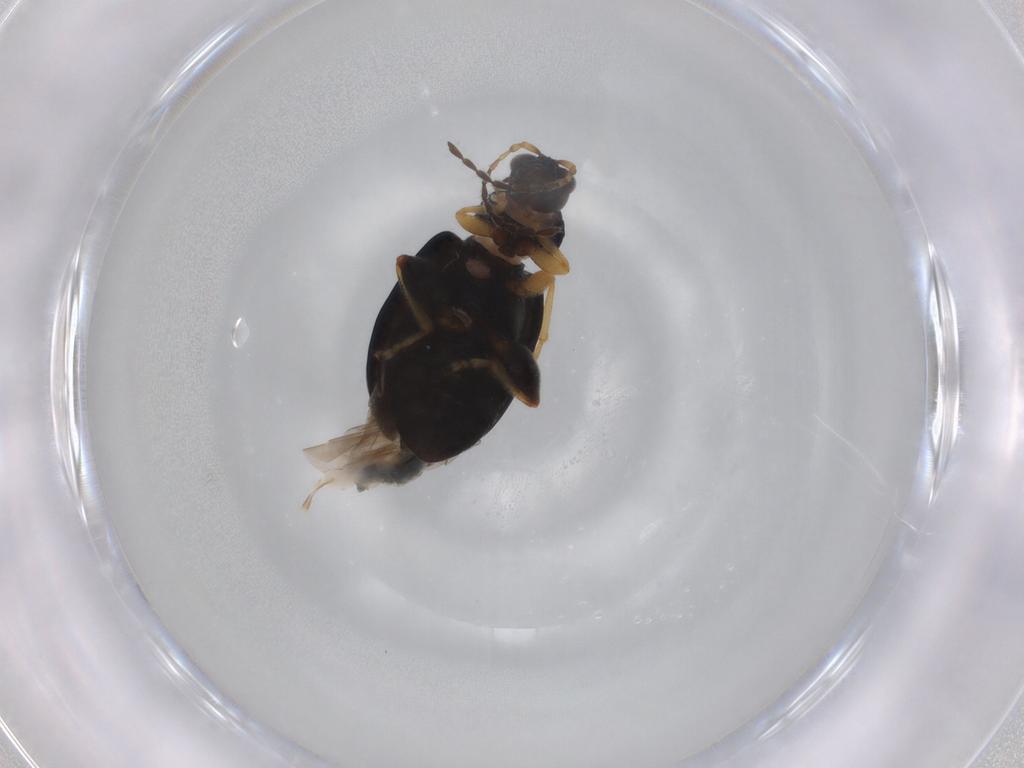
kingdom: Animalia
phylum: Arthropoda
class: Insecta
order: Coleoptera
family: Chrysomelidae
